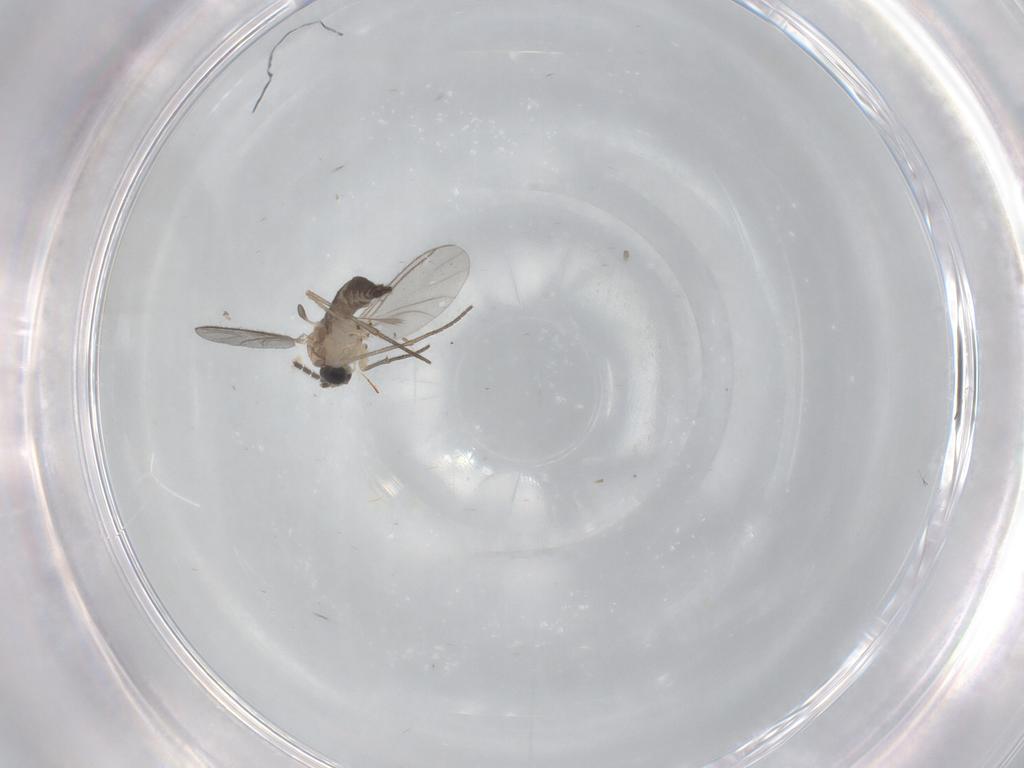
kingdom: Animalia
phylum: Arthropoda
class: Insecta
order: Diptera
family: Sciaridae
